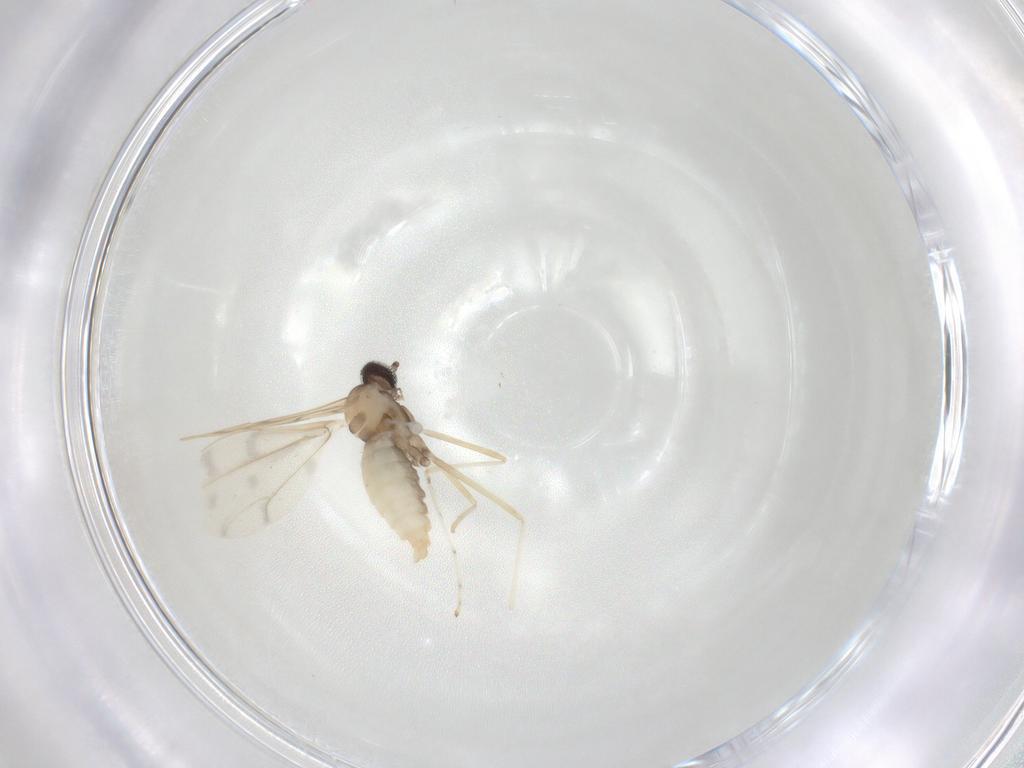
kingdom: Animalia
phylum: Arthropoda
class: Insecta
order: Diptera
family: Cecidomyiidae
